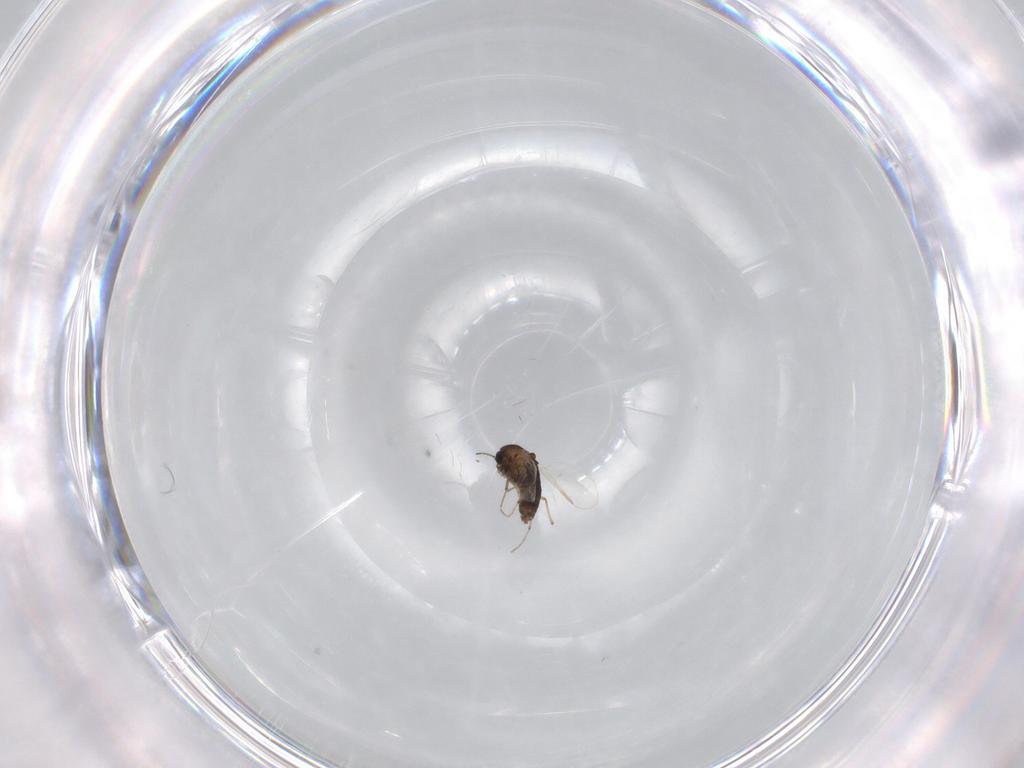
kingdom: Animalia
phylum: Arthropoda
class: Insecta
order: Diptera
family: Chironomidae
